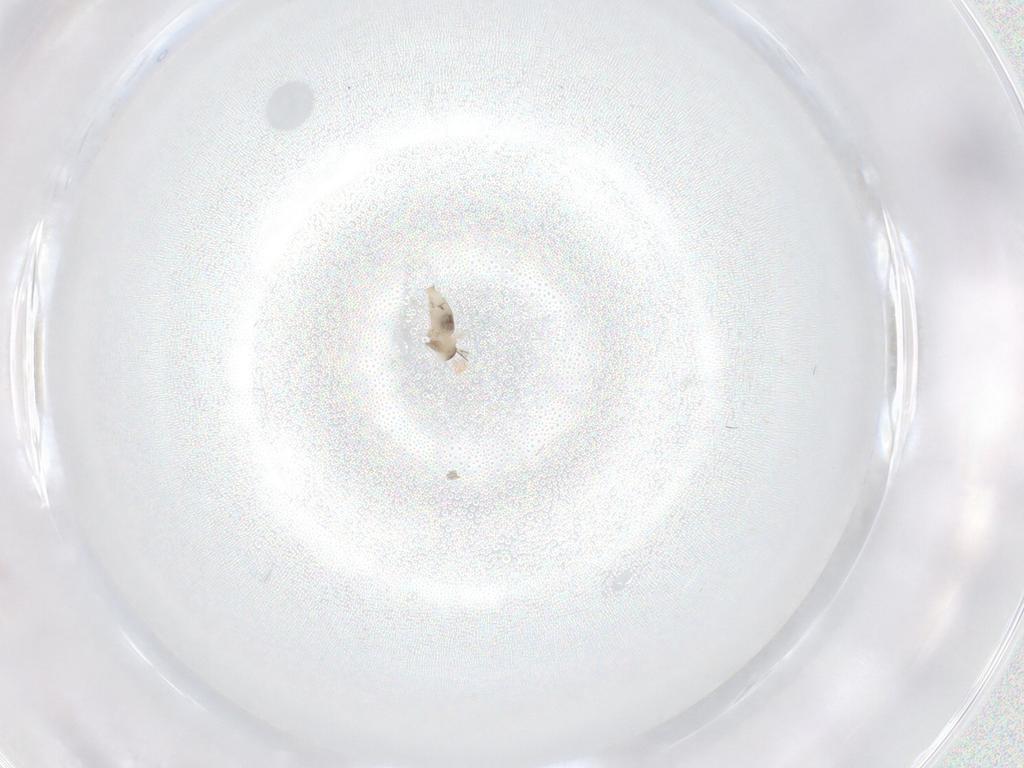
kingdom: Animalia
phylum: Arthropoda
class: Insecta
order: Diptera
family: Cecidomyiidae
